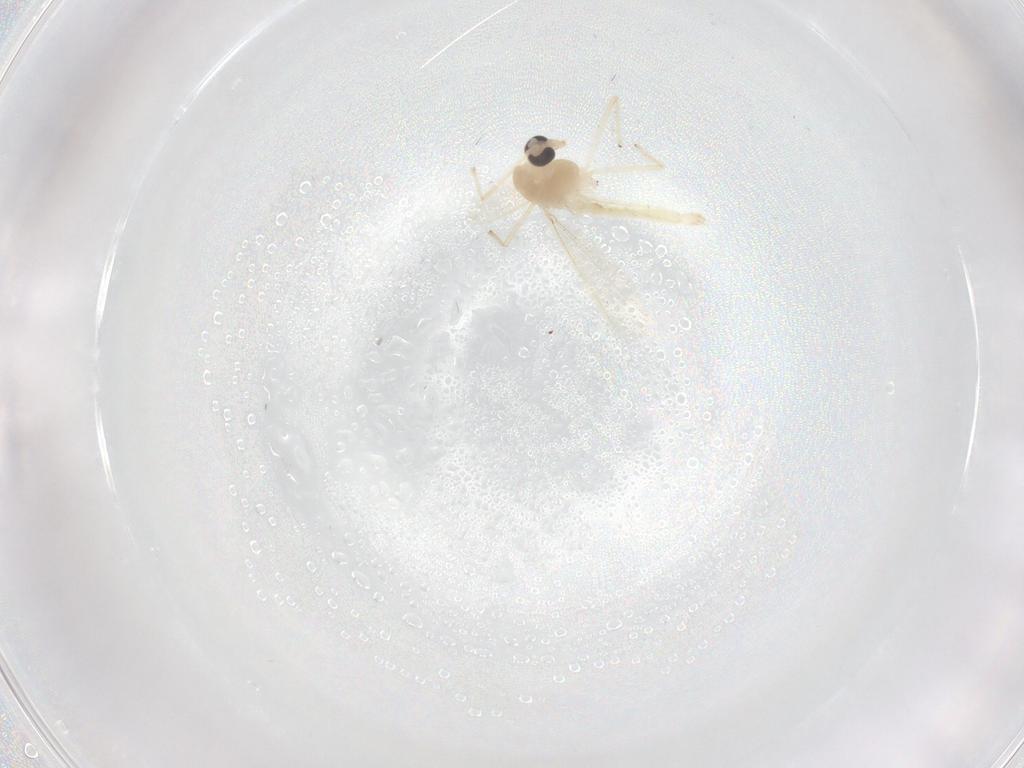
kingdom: Animalia
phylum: Arthropoda
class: Insecta
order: Diptera
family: Chironomidae
